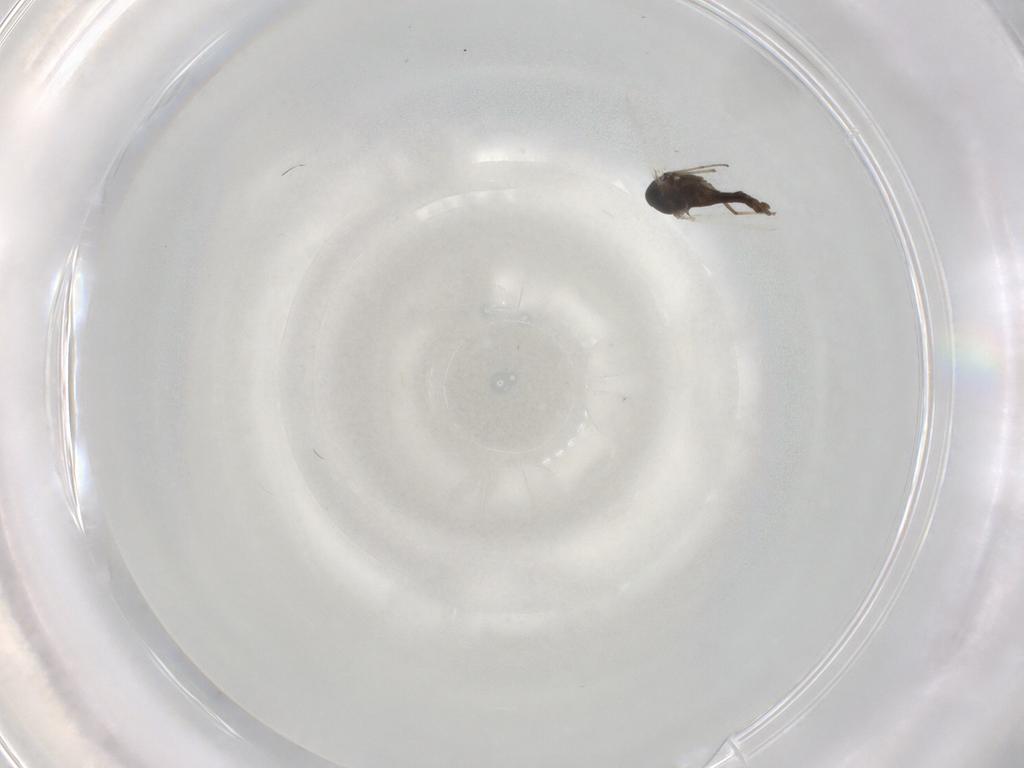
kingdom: Animalia
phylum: Arthropoda
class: Insecta
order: Diptera
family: Chironomidae
